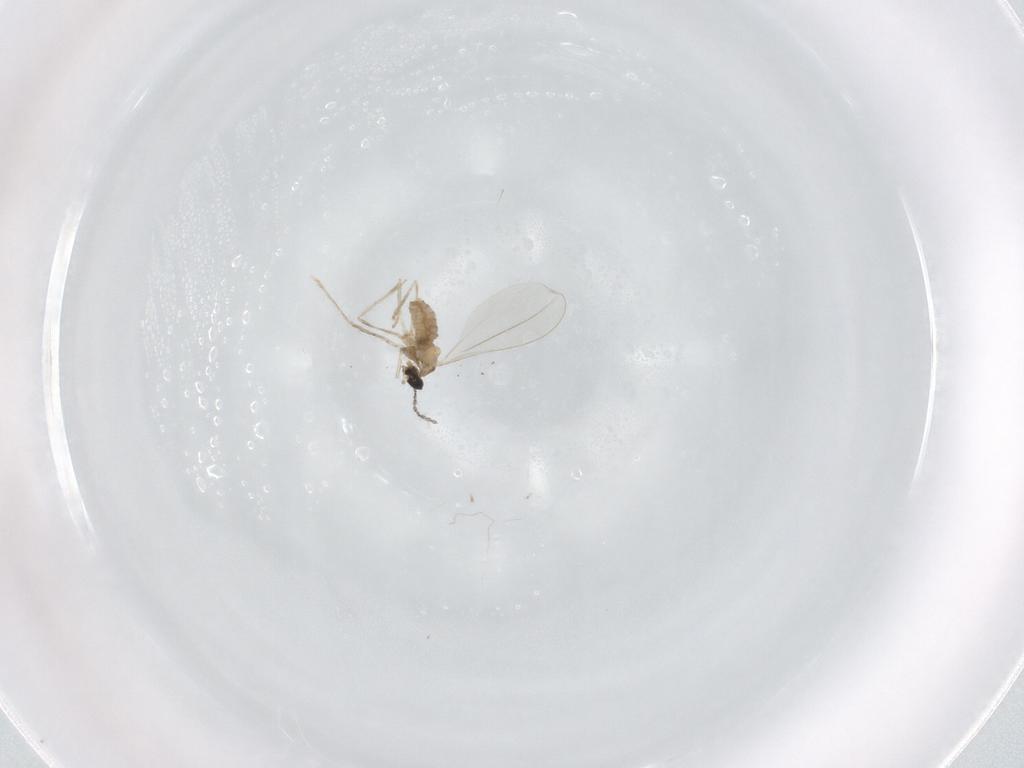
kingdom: Animalia
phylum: Arthropoda
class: Insecta
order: Diptera
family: Cecidomyiidae
